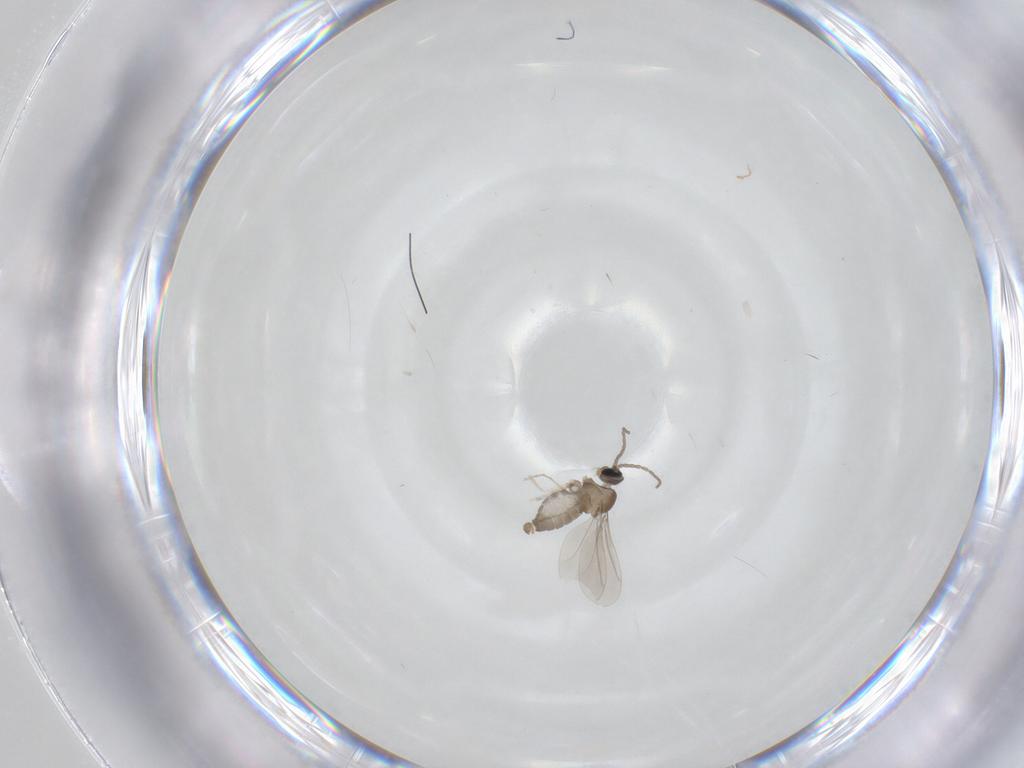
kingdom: Animalia
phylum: Arthropoda
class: Insecta
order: Diptera
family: Cecidomyiidae
